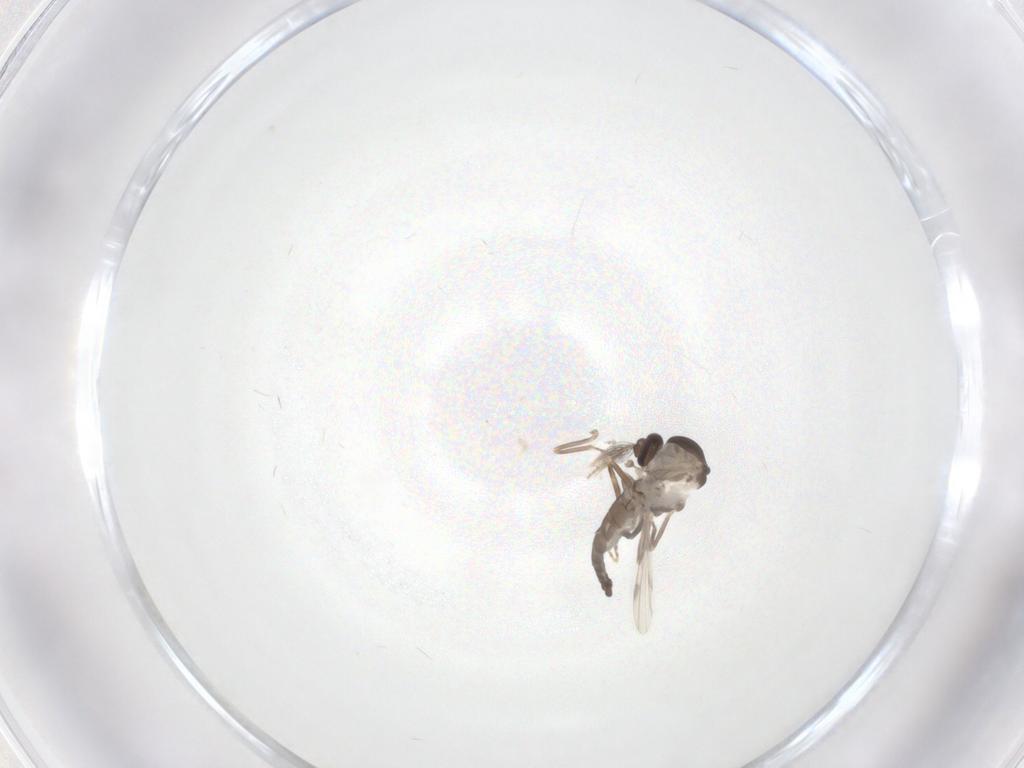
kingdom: Animalia
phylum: Arthropoda
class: Insecta
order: Diptera
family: Ceratopogonidae
